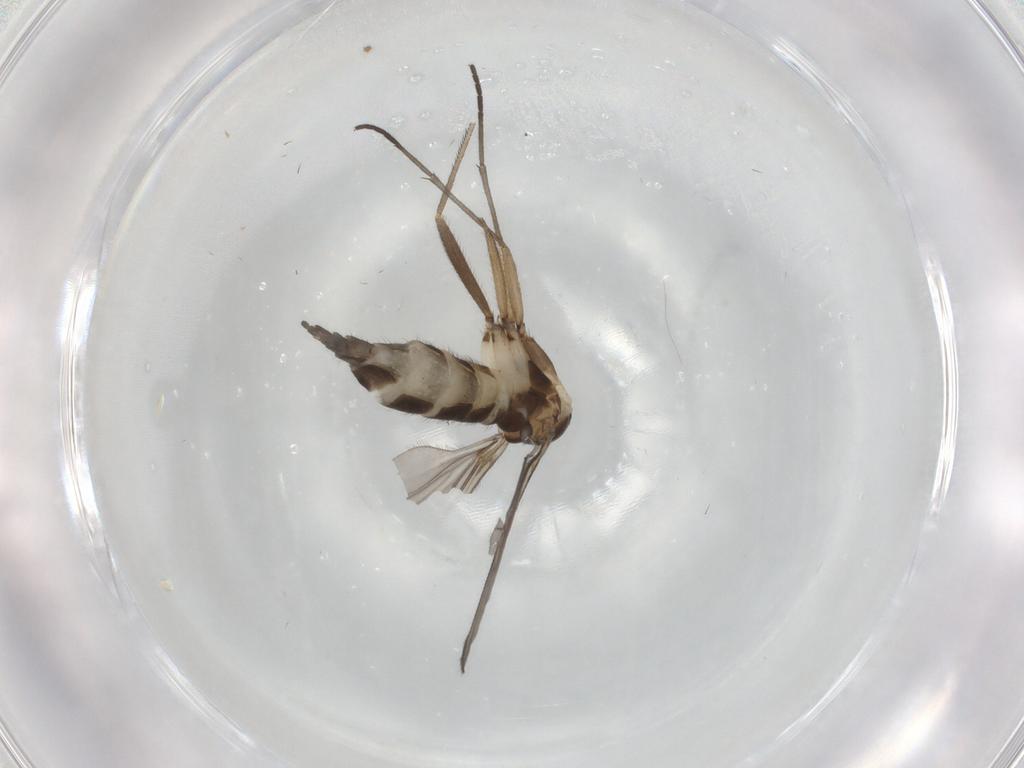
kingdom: Animalia
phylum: Arthropoda
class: Insecta
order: Diptera
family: Sciaridae
